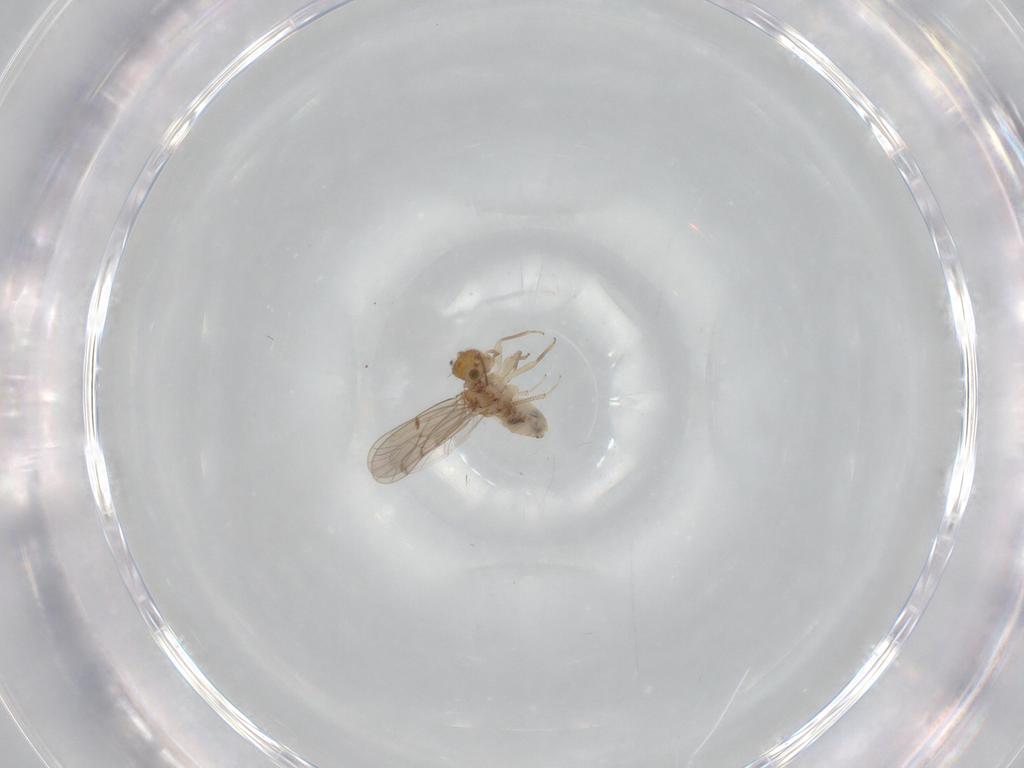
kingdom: Animalia
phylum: Arthropoda
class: Insecta
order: Psocodea
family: Ectopsocidae
